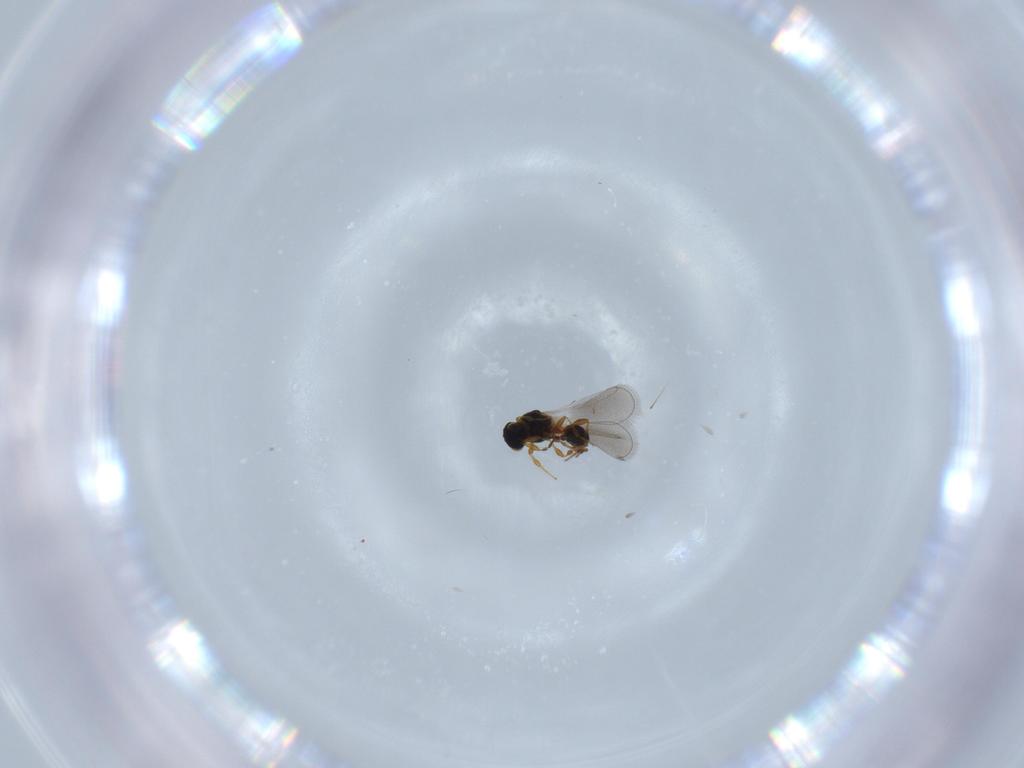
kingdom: Animalia
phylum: Arthropoda
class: Insecta
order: Hymenoptera
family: Platygastridae
